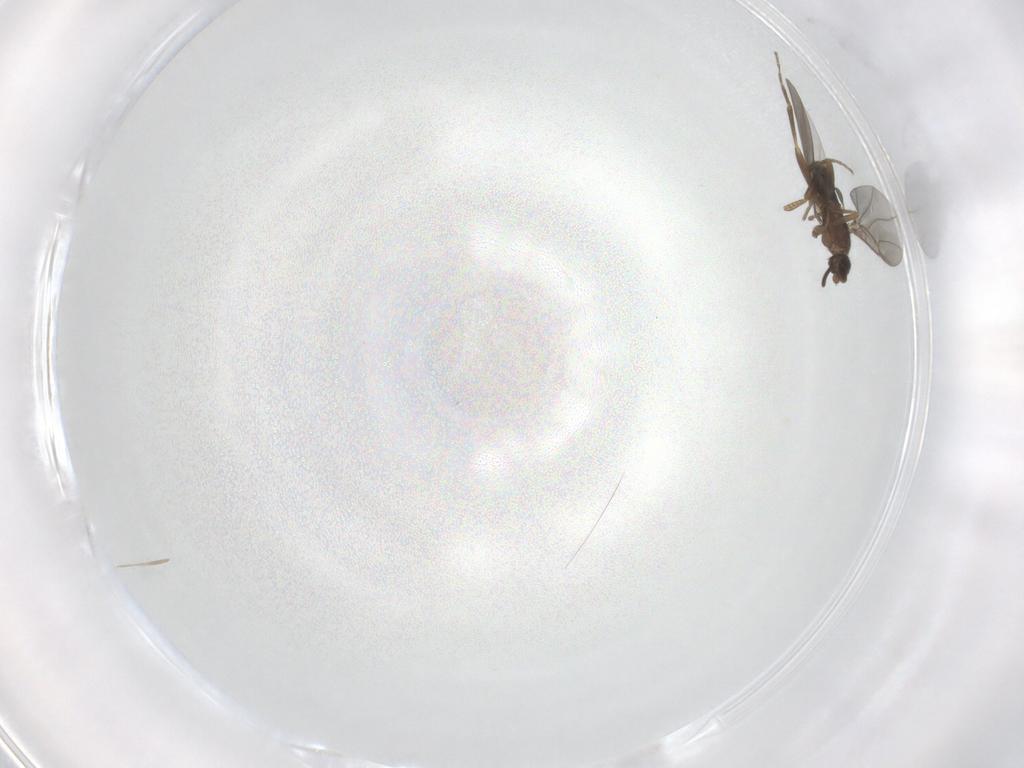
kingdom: Animalia
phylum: Arthropoda
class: Insecta
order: Diptera
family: Phoridae
